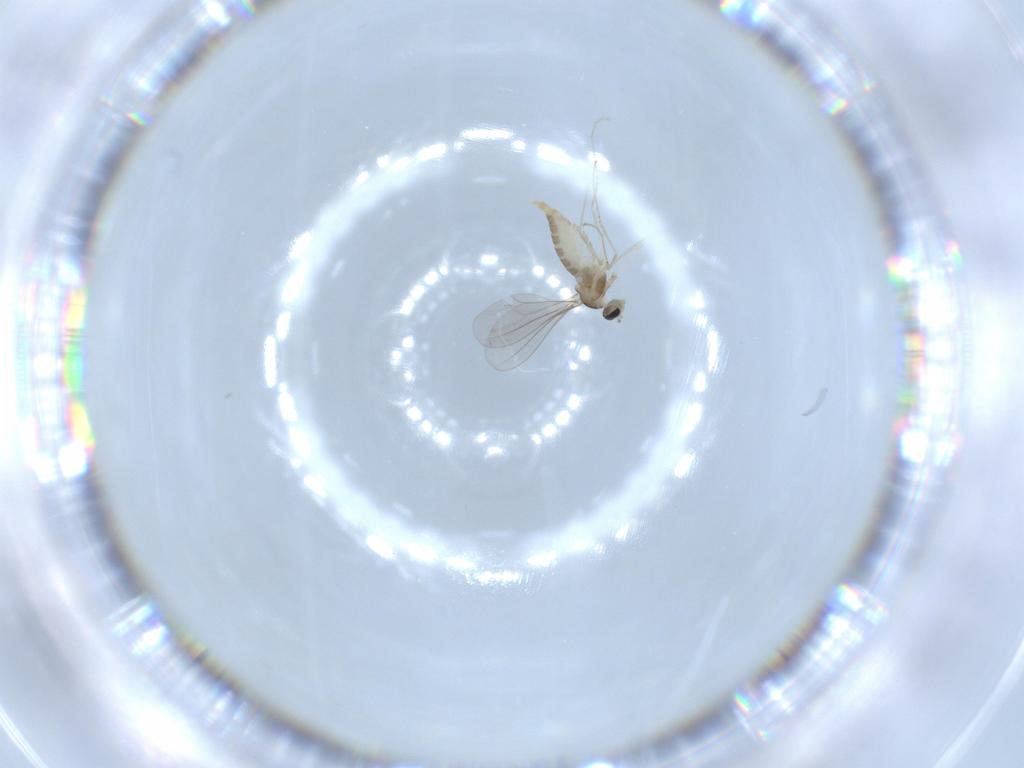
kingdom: Animalia
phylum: Arthropoda
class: Insecta
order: Diptera
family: Cecidomyiidae
